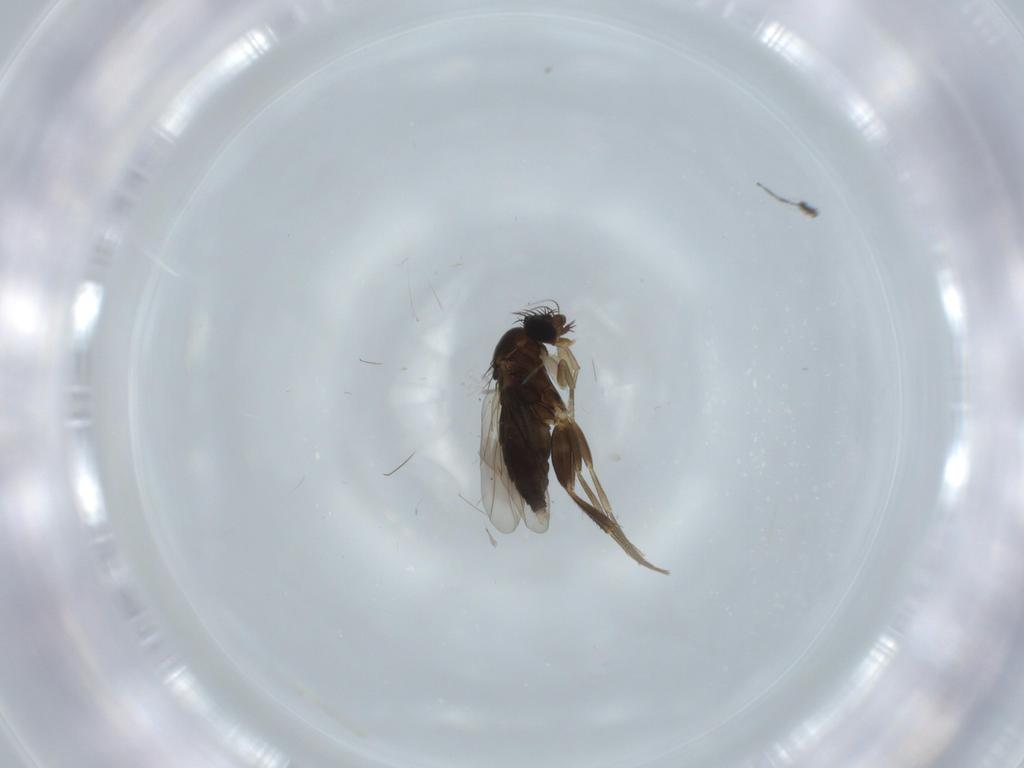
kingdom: Animalia
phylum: Arthropoda
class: Insecta
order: Diptera
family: Phoridae
